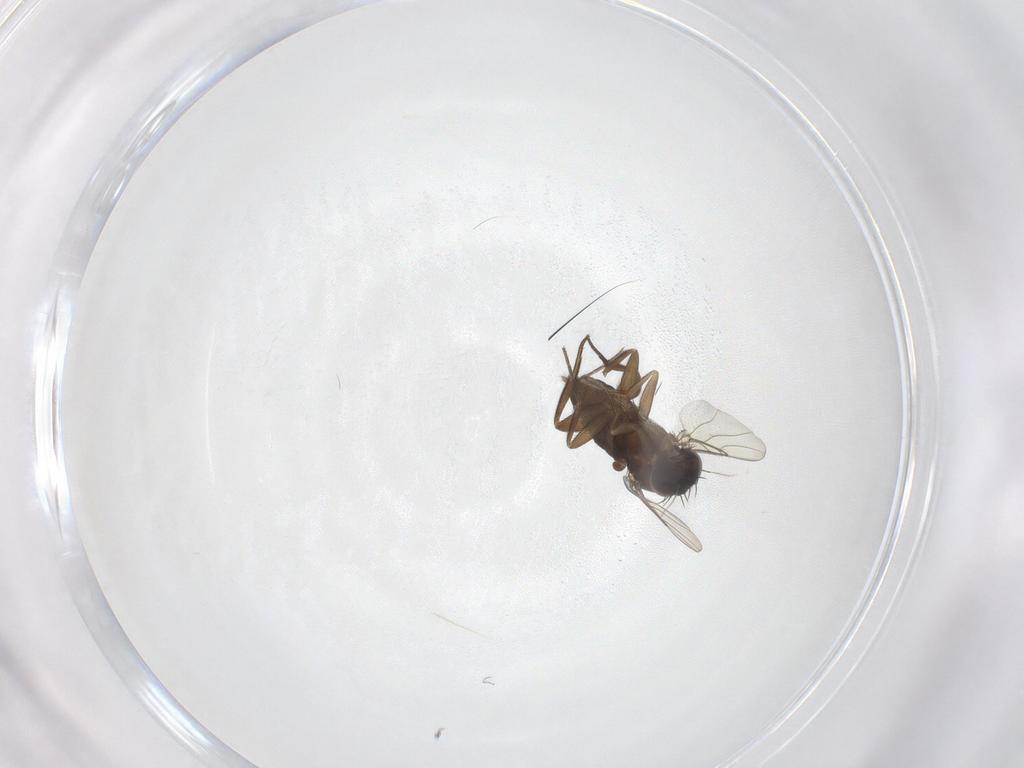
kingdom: Animalia
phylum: Arthropoda
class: Insecta
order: Diptera
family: Phoridae
